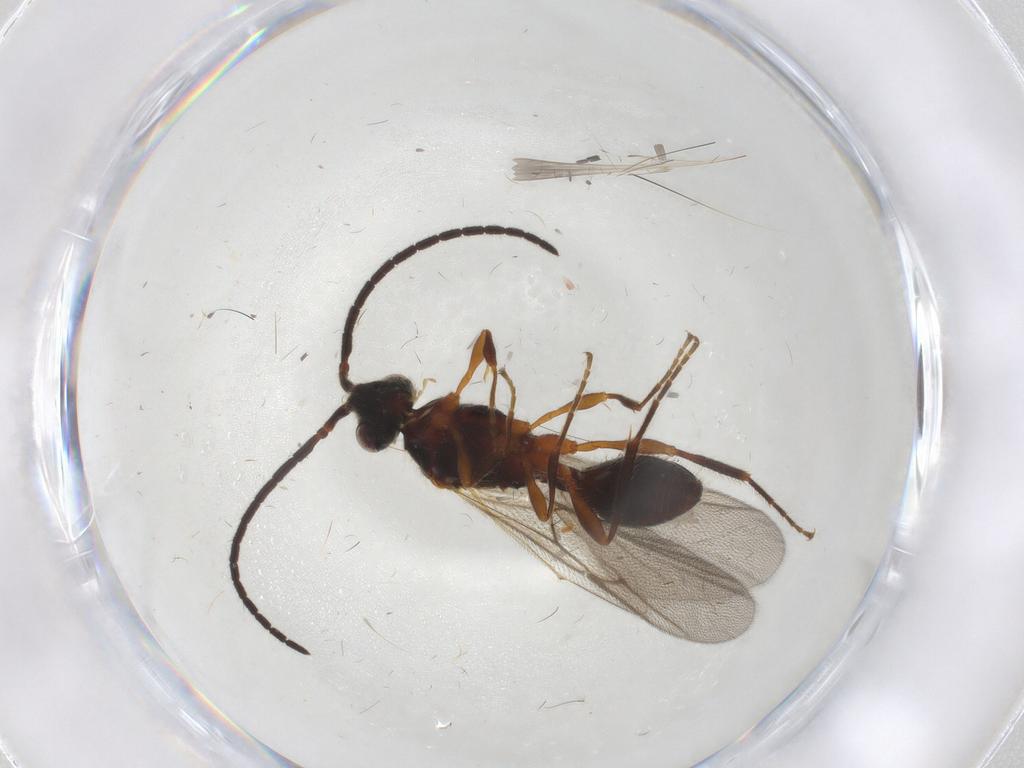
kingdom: Animalia
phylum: Arthropoda
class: Insecta
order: Hymenoptera
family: Diapriidae
